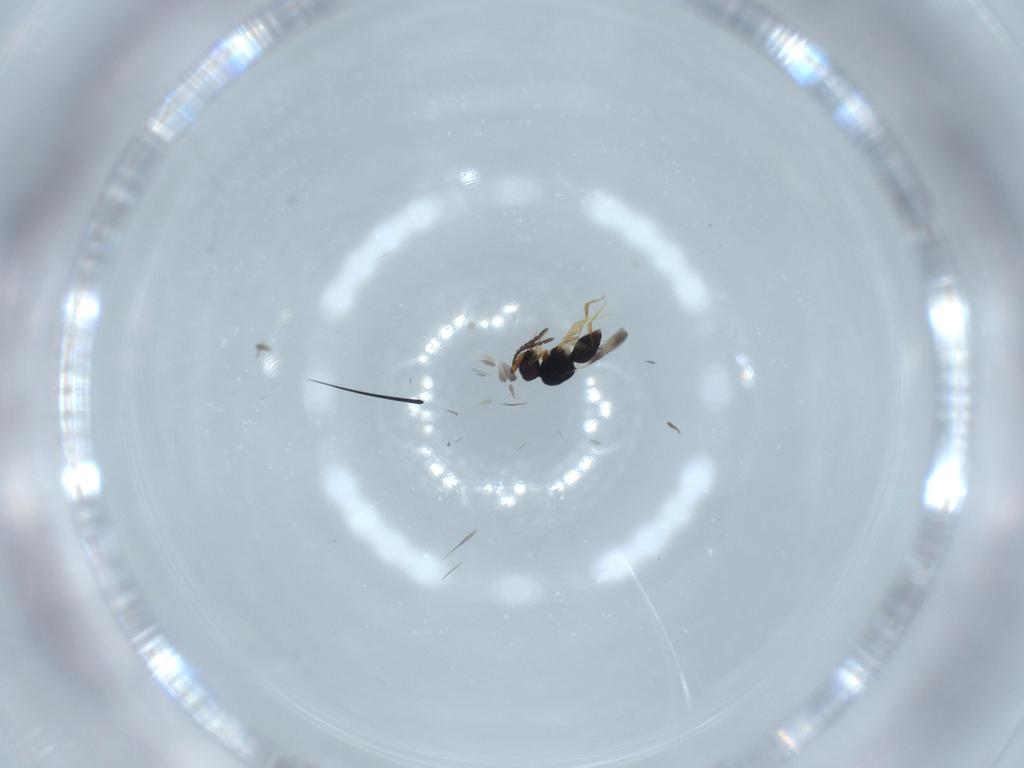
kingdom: Animalia
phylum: Arthropoda
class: Insecta
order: Hymenoptera
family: Ceraphronidae
